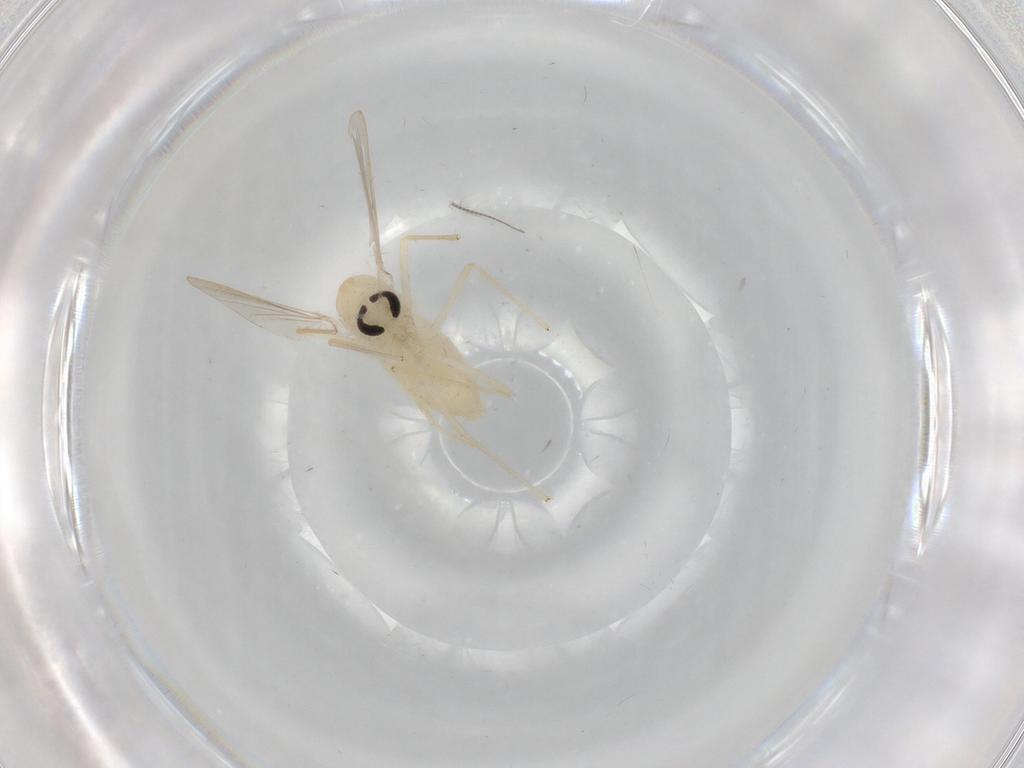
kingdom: Animalia
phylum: Arthropoda
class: Insecta
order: Diptera
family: Chironomidae
